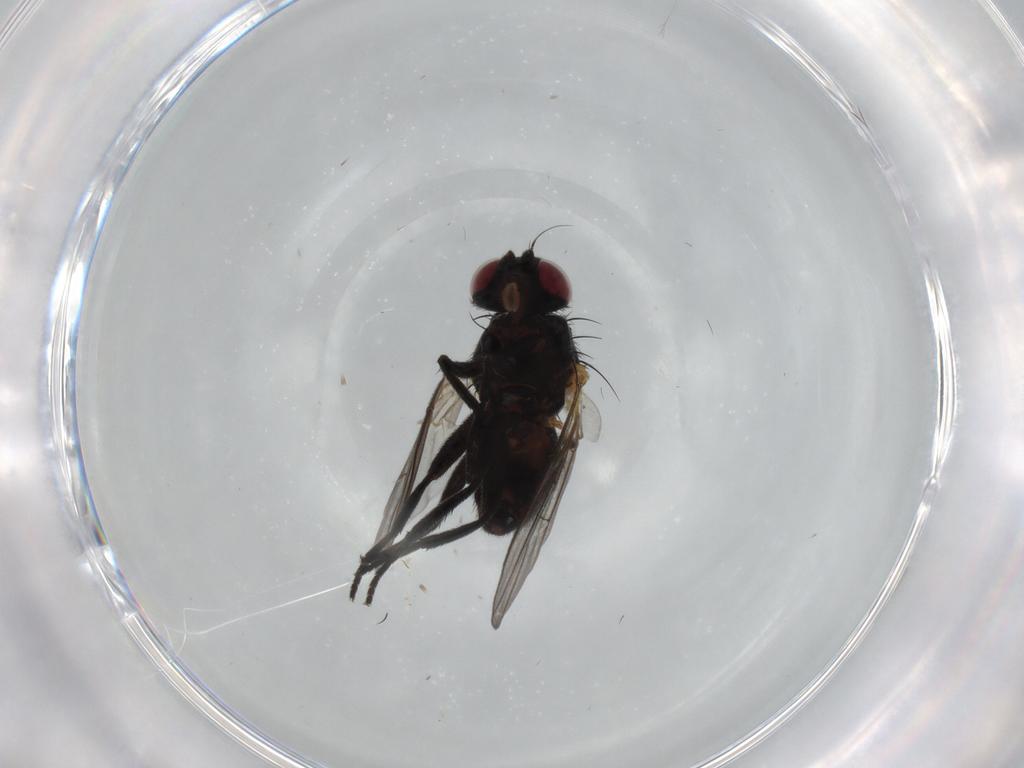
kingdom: Animalia
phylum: Arthropoda
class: Insecta
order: Diptera
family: Agromyzidae
